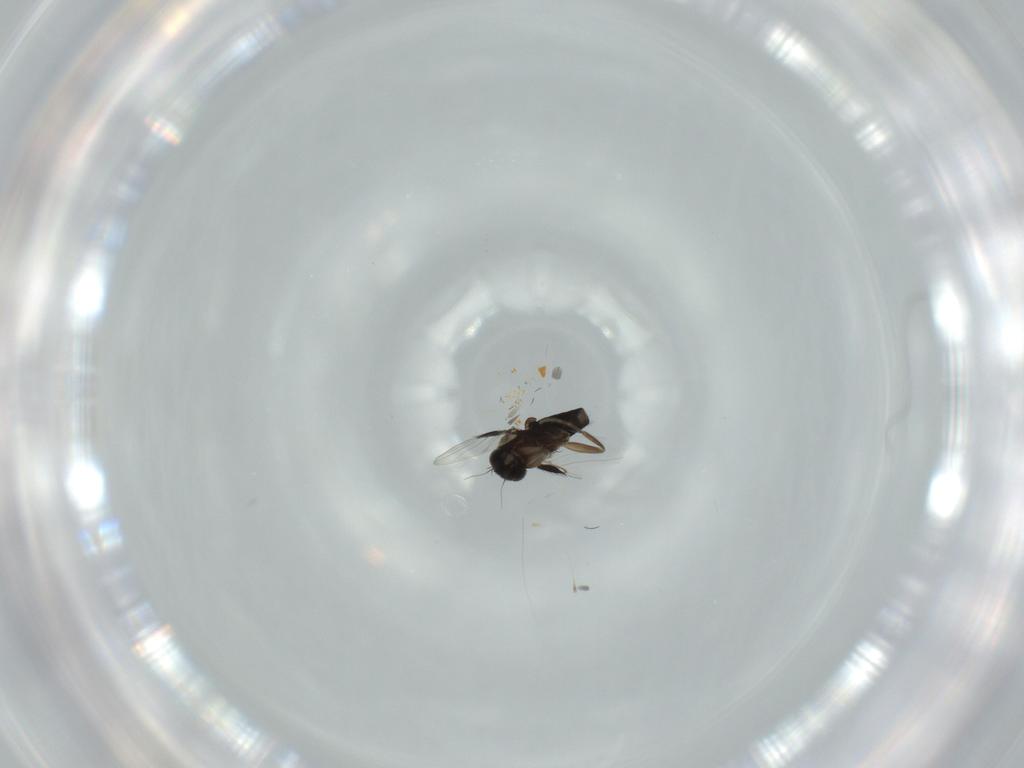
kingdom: Animalia
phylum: Arthropoda
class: Insecta
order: Diptera
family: Phoridae
